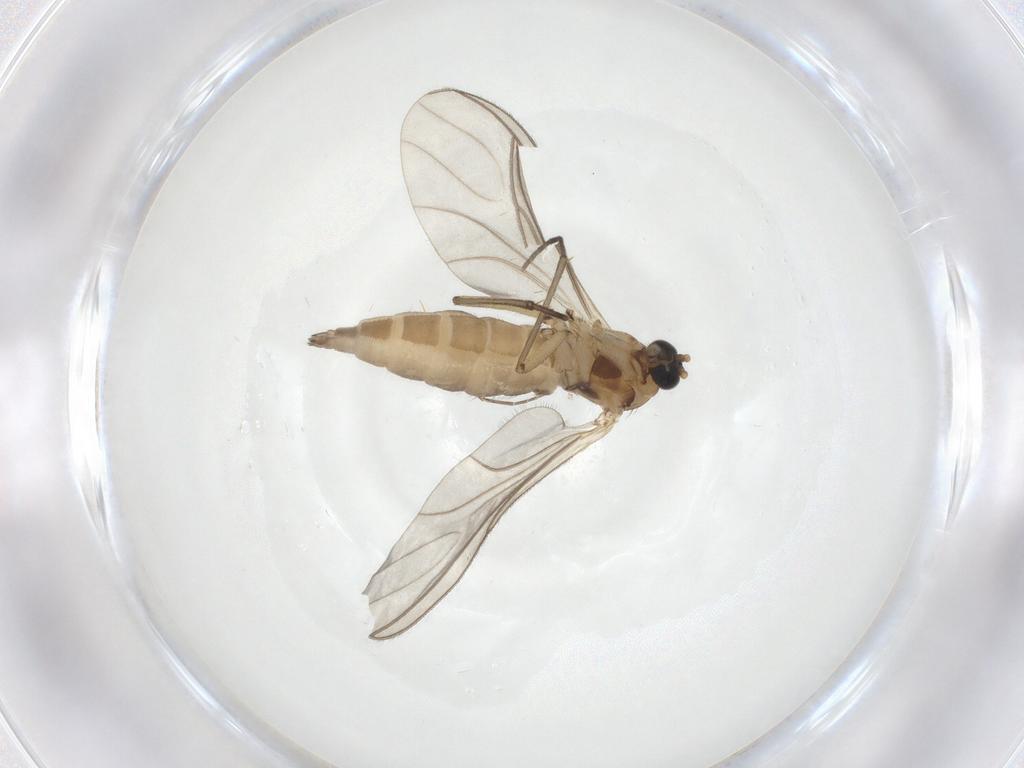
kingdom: Animalia
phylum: Arthropoda
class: Insecta
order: Diptera
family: Phoridae
